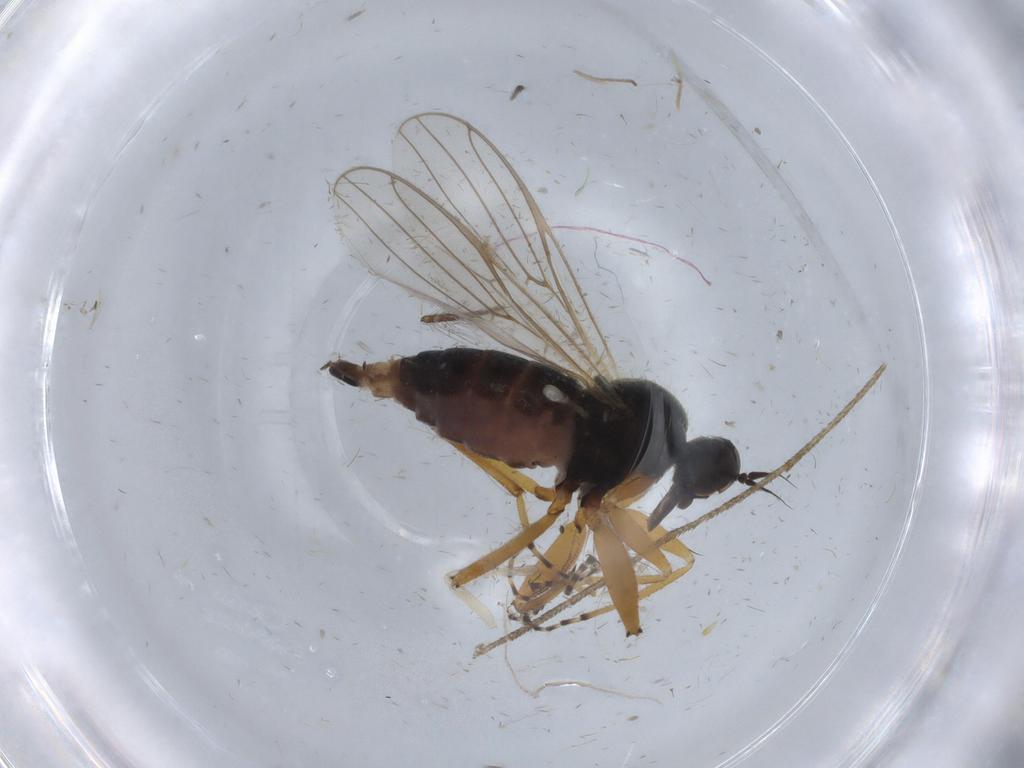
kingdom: Animalia
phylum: Arthropoda
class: Insecta
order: Diptera
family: Hybotidae
